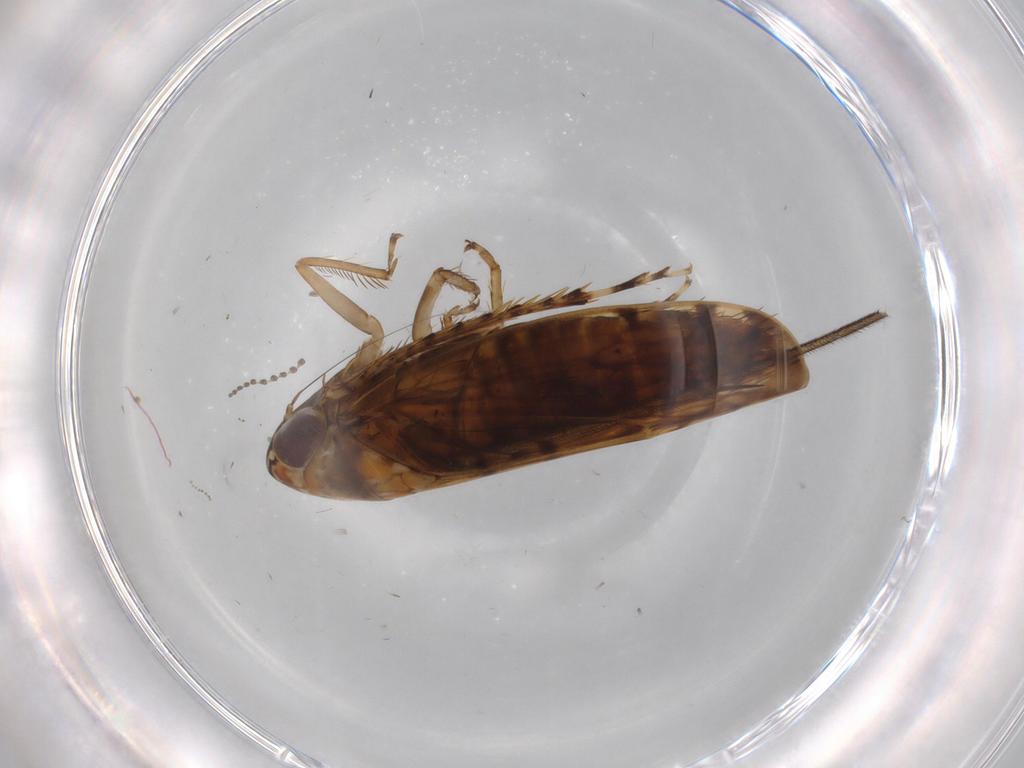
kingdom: Animalia
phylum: Arthropoda
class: Insecta
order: Hemiptera
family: Cicadellidae
